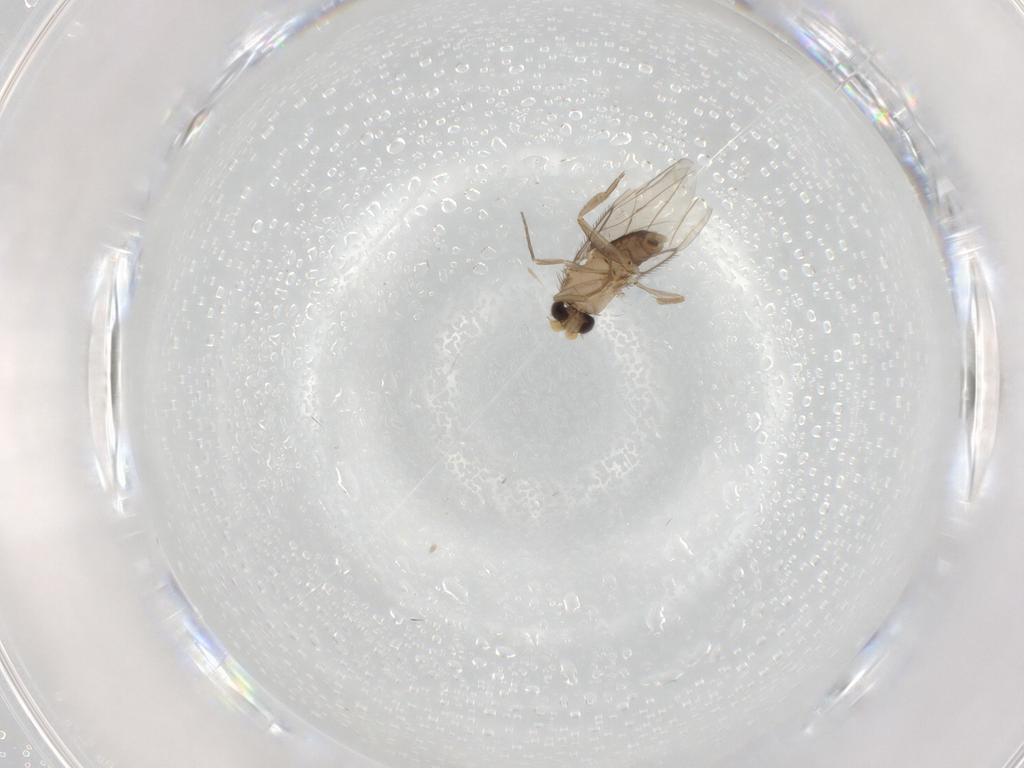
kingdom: Animalia
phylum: Arthropoda
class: Insecta
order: Diptera
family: Phoridae
